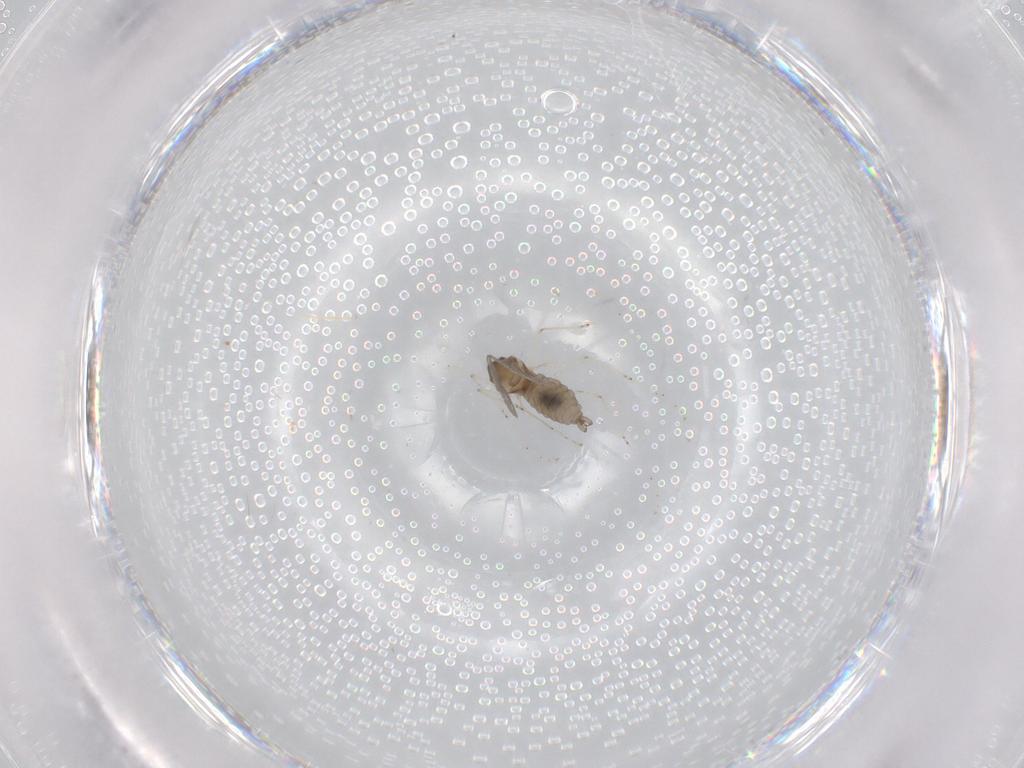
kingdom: Animalia
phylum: Arthropoda
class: Insecta
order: Diptera
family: Cecidomyiidae
